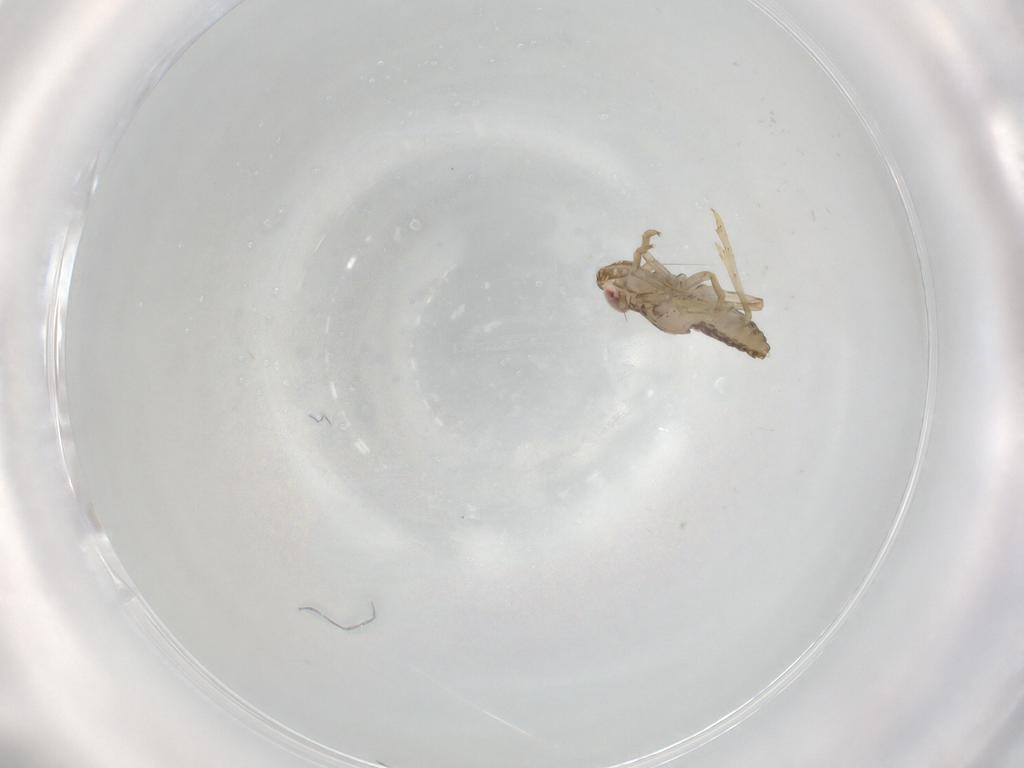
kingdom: Animalia
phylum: Arthropoda
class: Insecta
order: Hemiptera
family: Delphacidae
